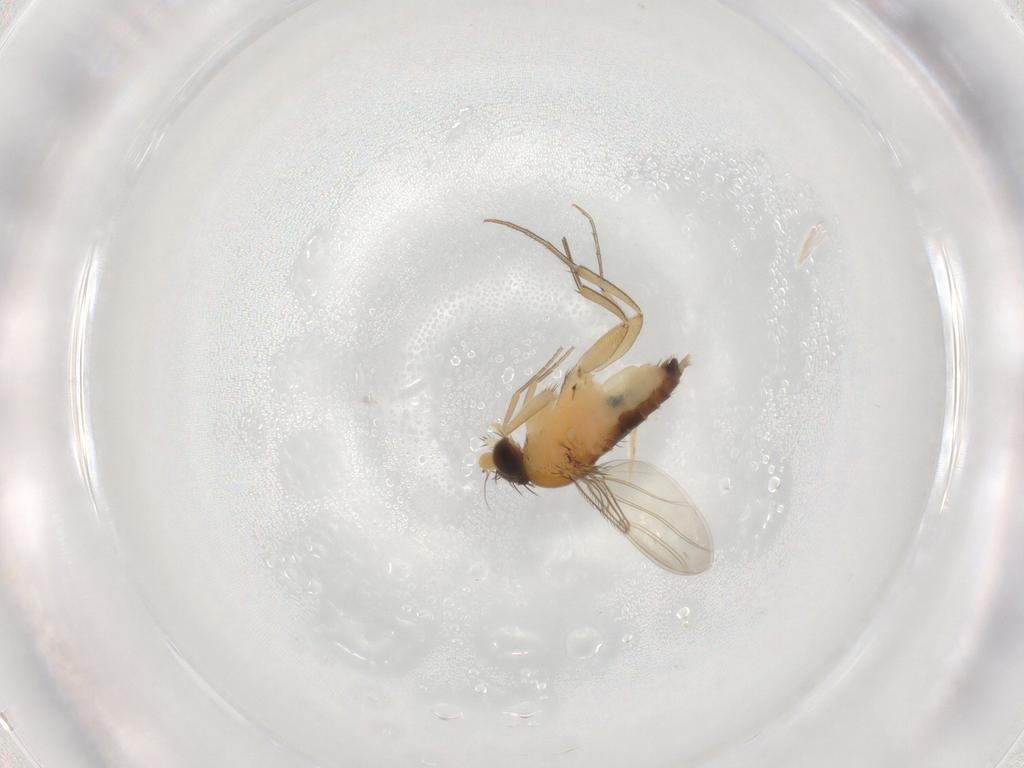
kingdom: Animalia
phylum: Arthropoda
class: Insecta
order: Diptera
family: Phoridae
